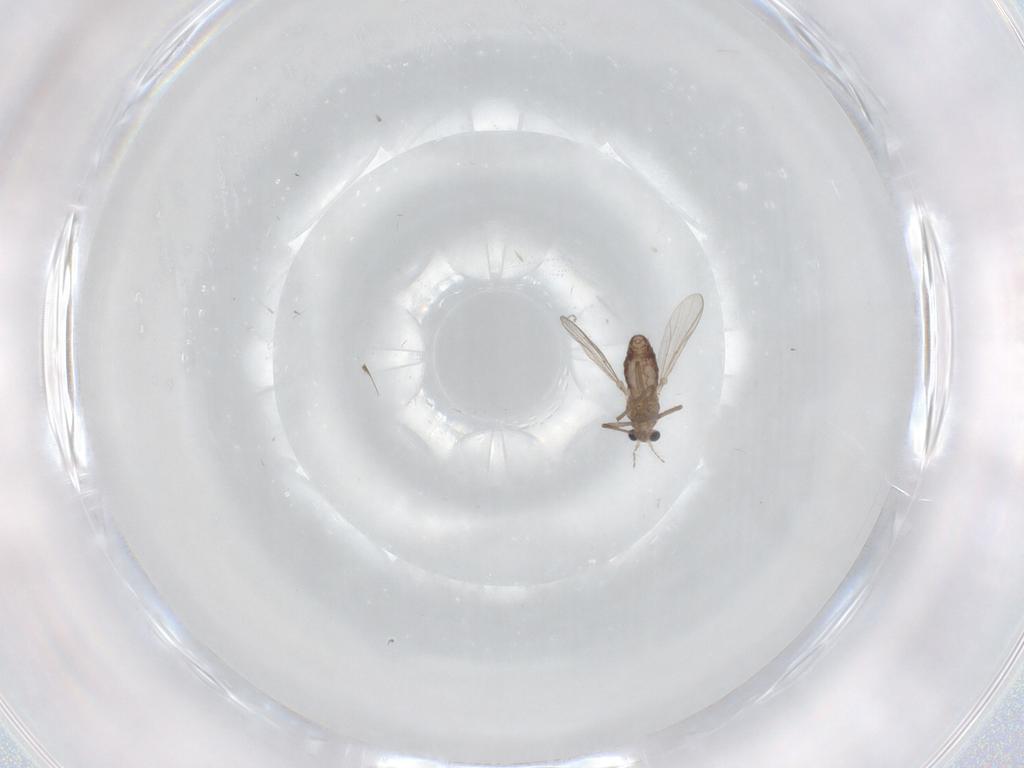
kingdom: Animalia
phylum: Arthropoda
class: Insecta
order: Diptera
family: Chironomidae
